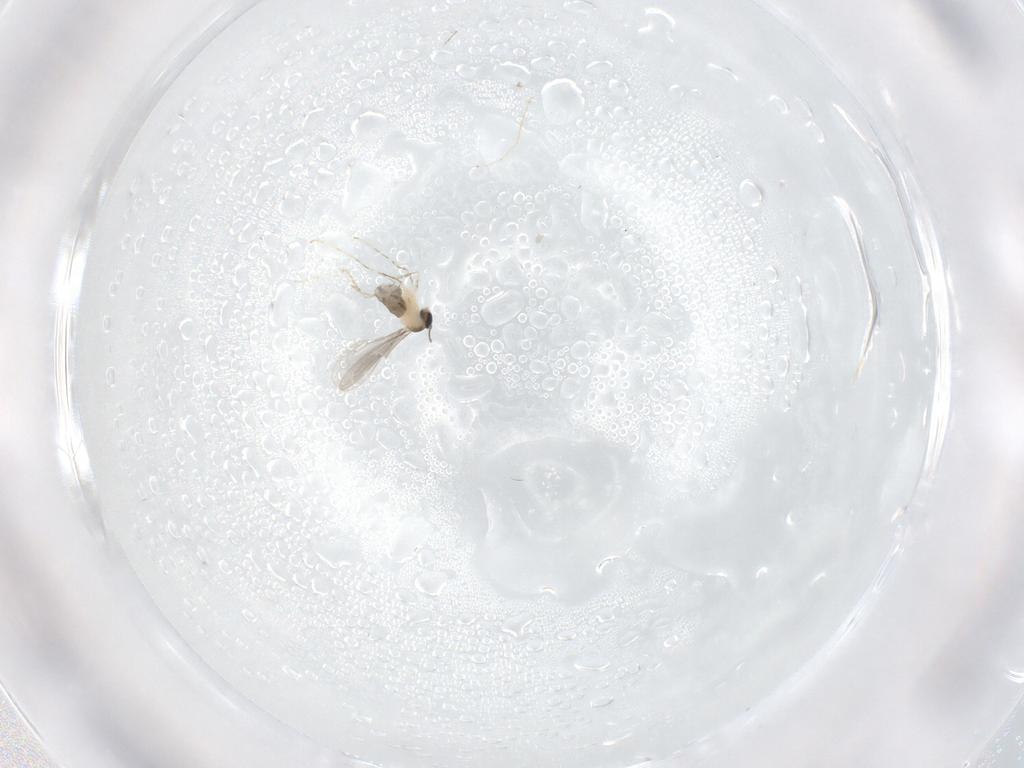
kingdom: Animalia
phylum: Arthropoda
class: Insecta
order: Diptera
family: Cecidomyiidae
